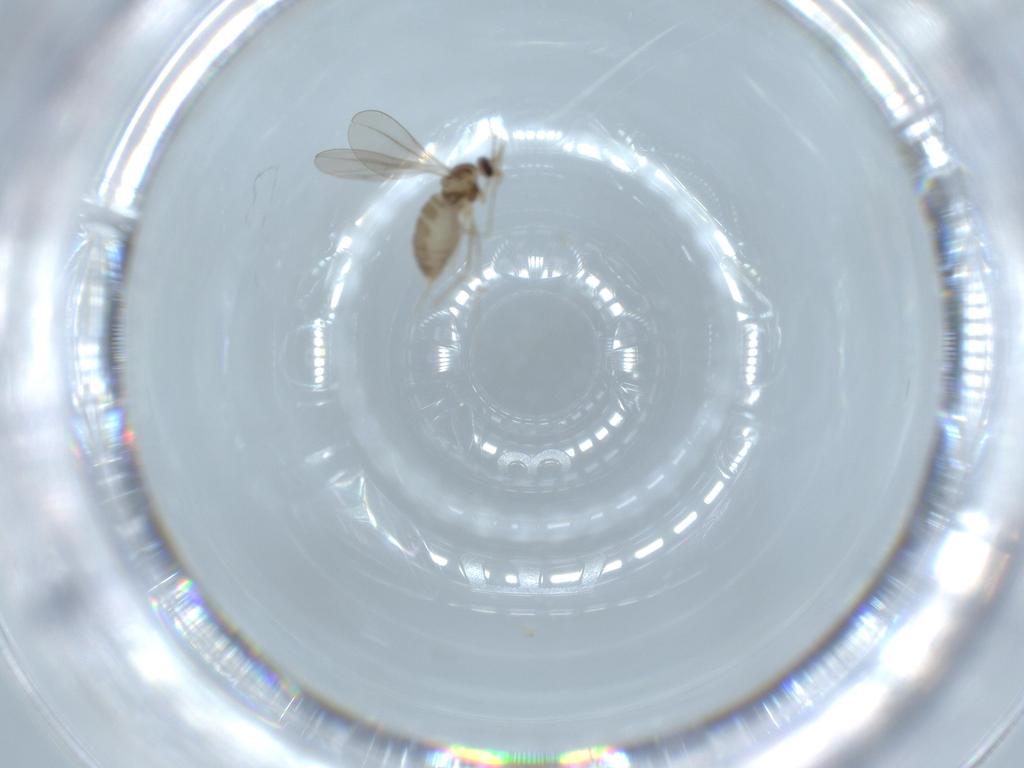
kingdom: Animalia
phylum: Arthropoda
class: Insecta
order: Diptera
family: Cecidomyiidae
